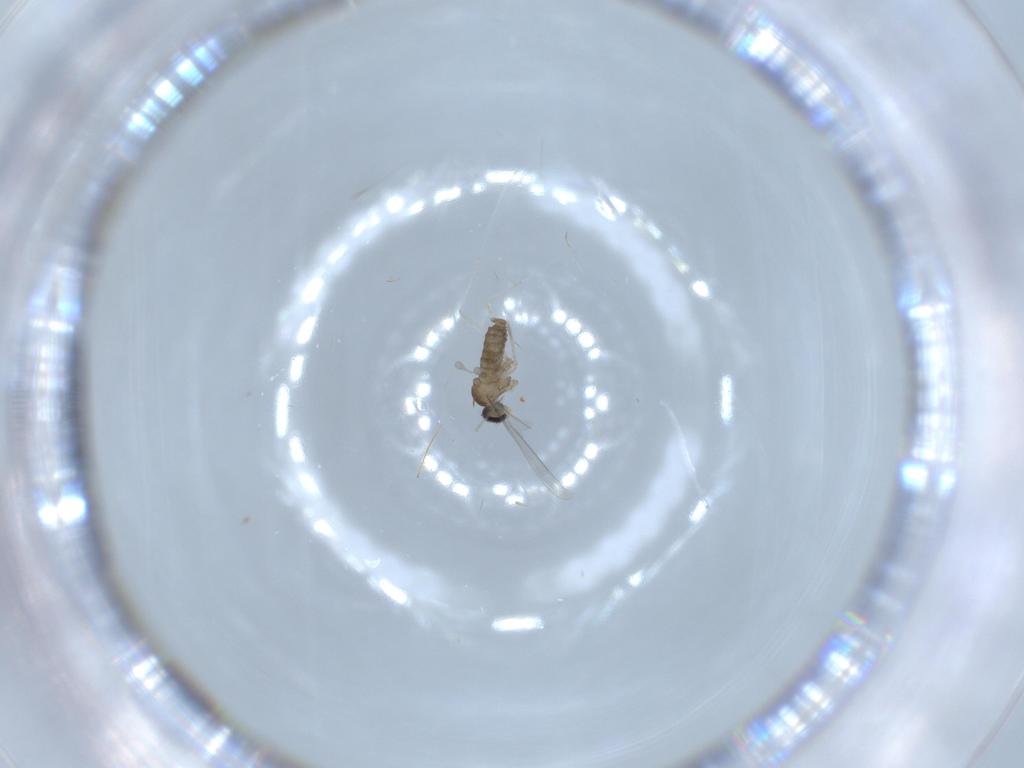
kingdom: Animalia
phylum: Arthropoda
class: Insecta
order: Diptera
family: Cecidomyiidae
